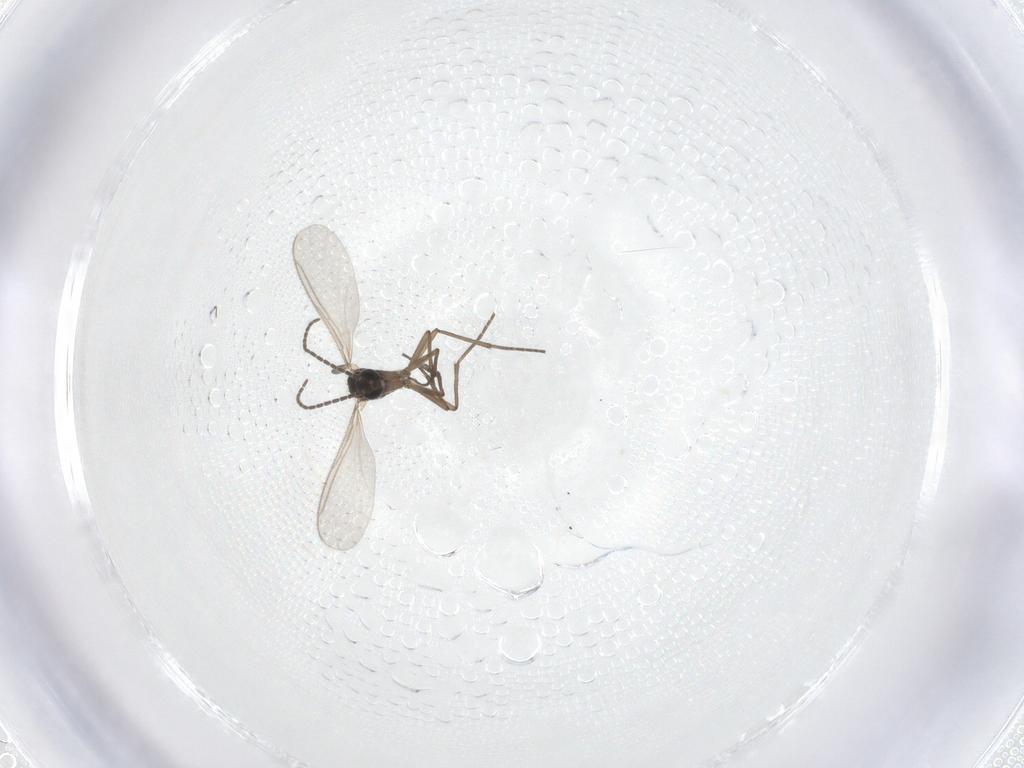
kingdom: Animalia
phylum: Arthropoda
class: Insecta
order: Diptera
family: Sciaridae
